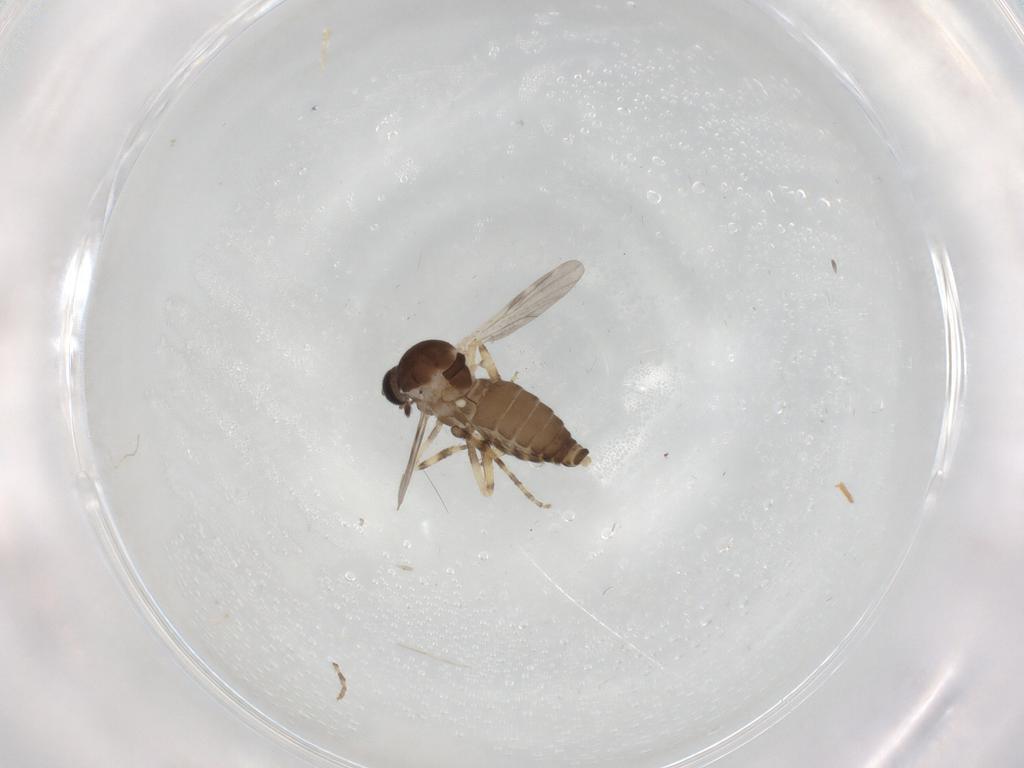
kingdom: Animalia
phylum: Arthropoda
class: Insecta
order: Diptera
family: Ceratopogonidae
